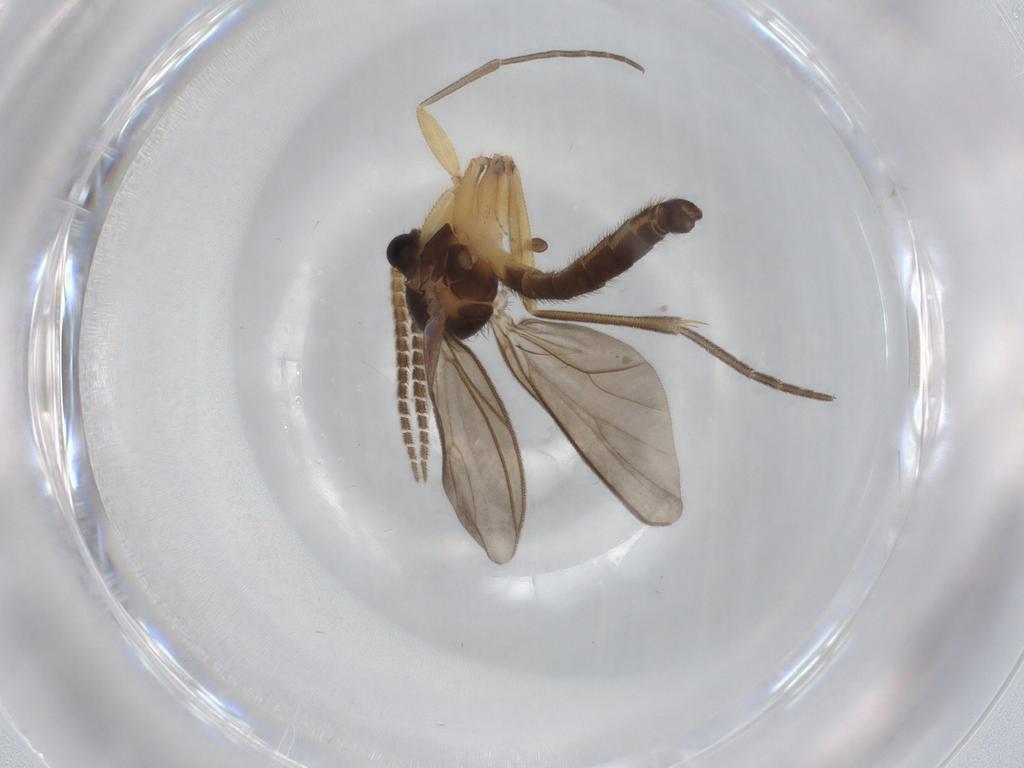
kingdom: Animalia
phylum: Arthropoda
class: Insecta
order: Diptera
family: Psychodidae
